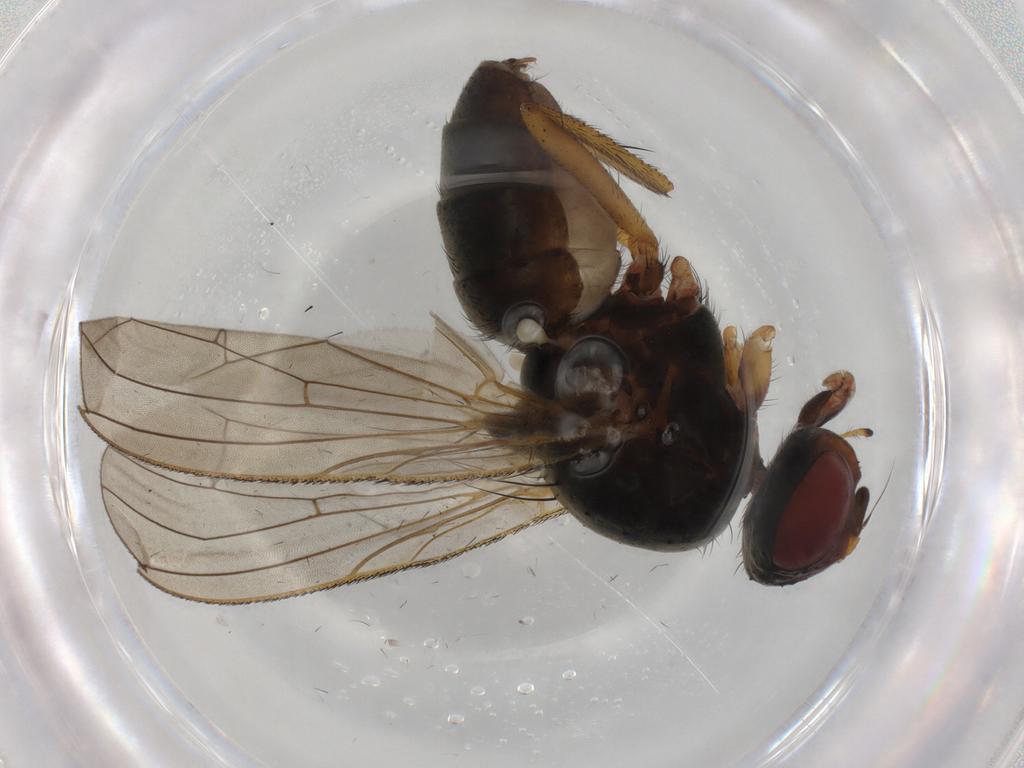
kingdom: Animalia
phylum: Arthropoda
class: Insecta
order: Diptera
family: Anthomyiidae
